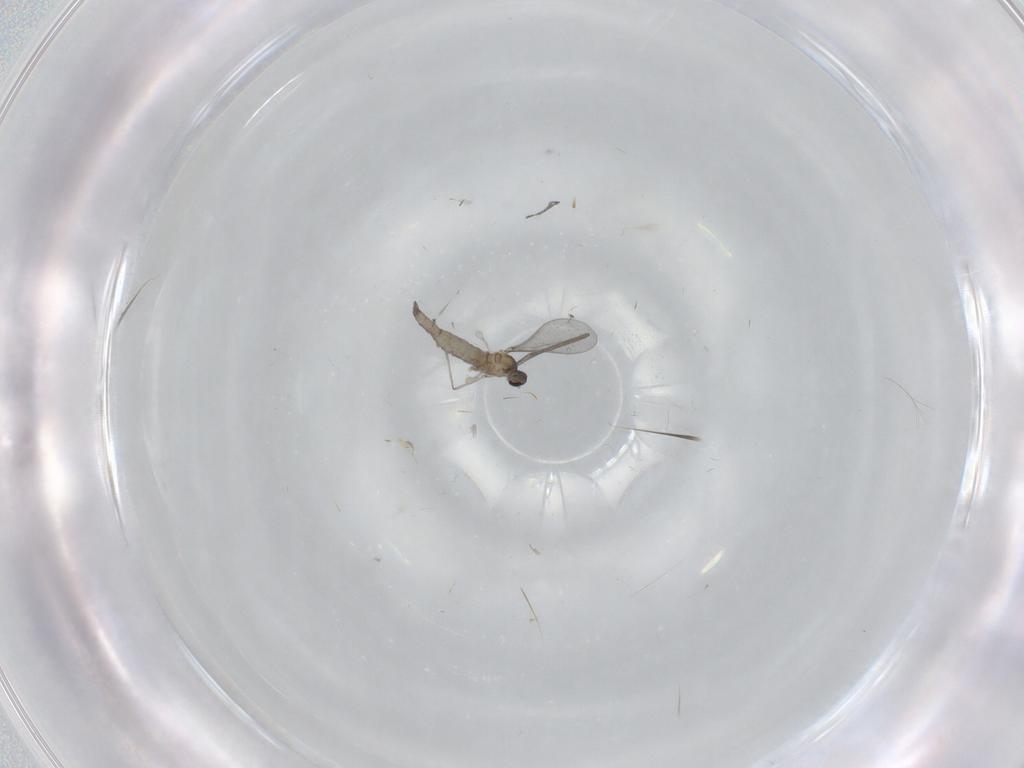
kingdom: Animalia
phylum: Arthropoda
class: Insecta
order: Diptera
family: Cecidomyiidae
